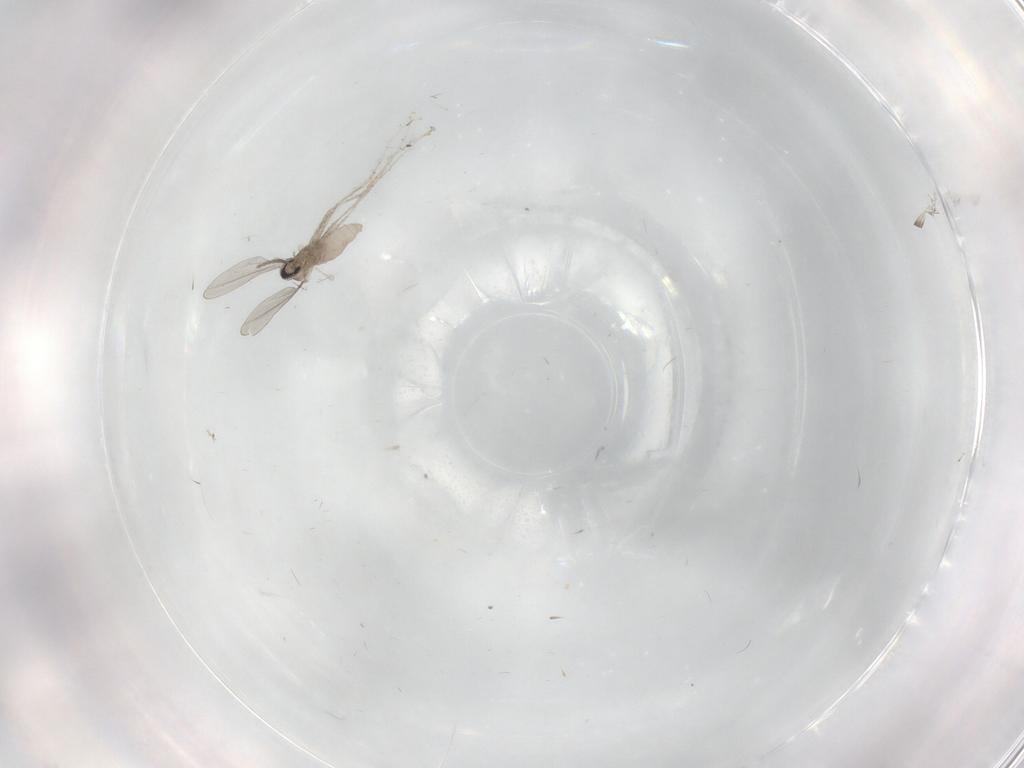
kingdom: Animalia
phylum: Arthropoda
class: Insecta
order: Diptera
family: Cecidomyiidae
